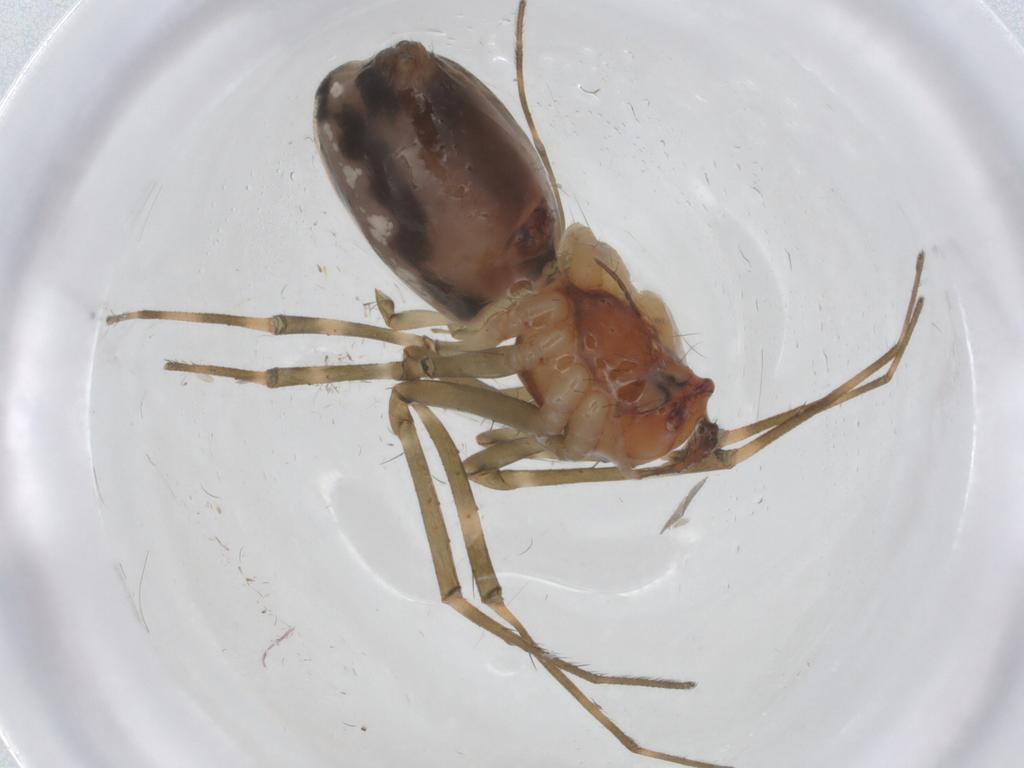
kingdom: Animalia
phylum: Arthropoda
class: Arachnida
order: Araneae
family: Linyphiidae
